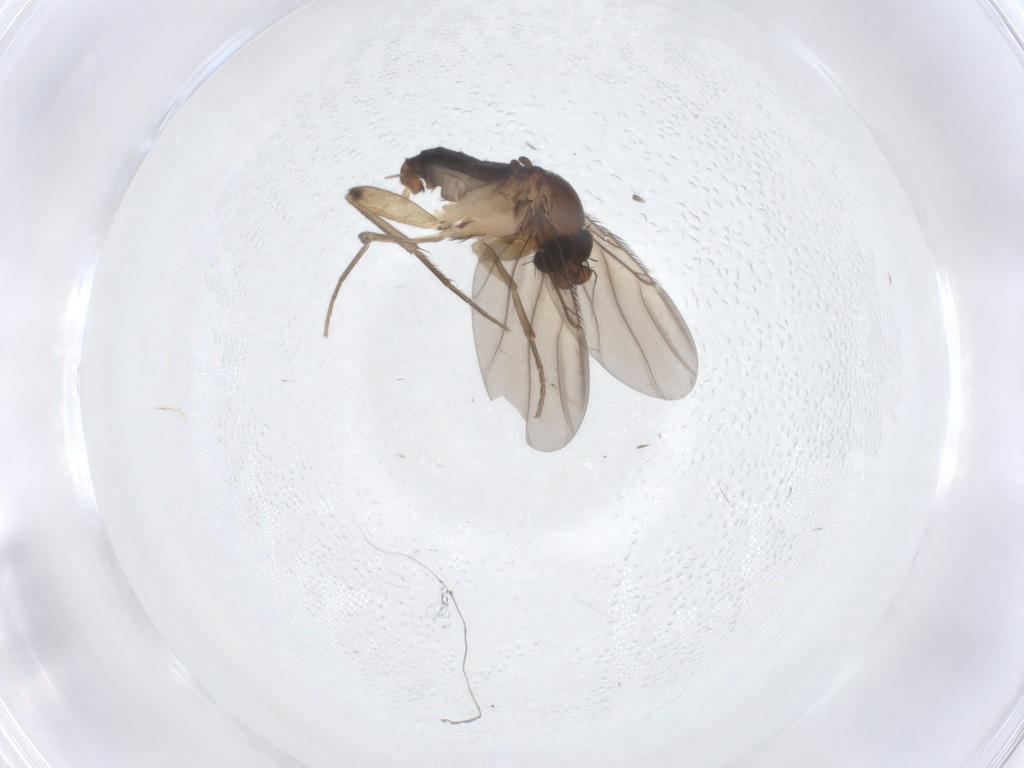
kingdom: Animalia
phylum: Arthropoda
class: Insecta
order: Diptera
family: Phoridae
